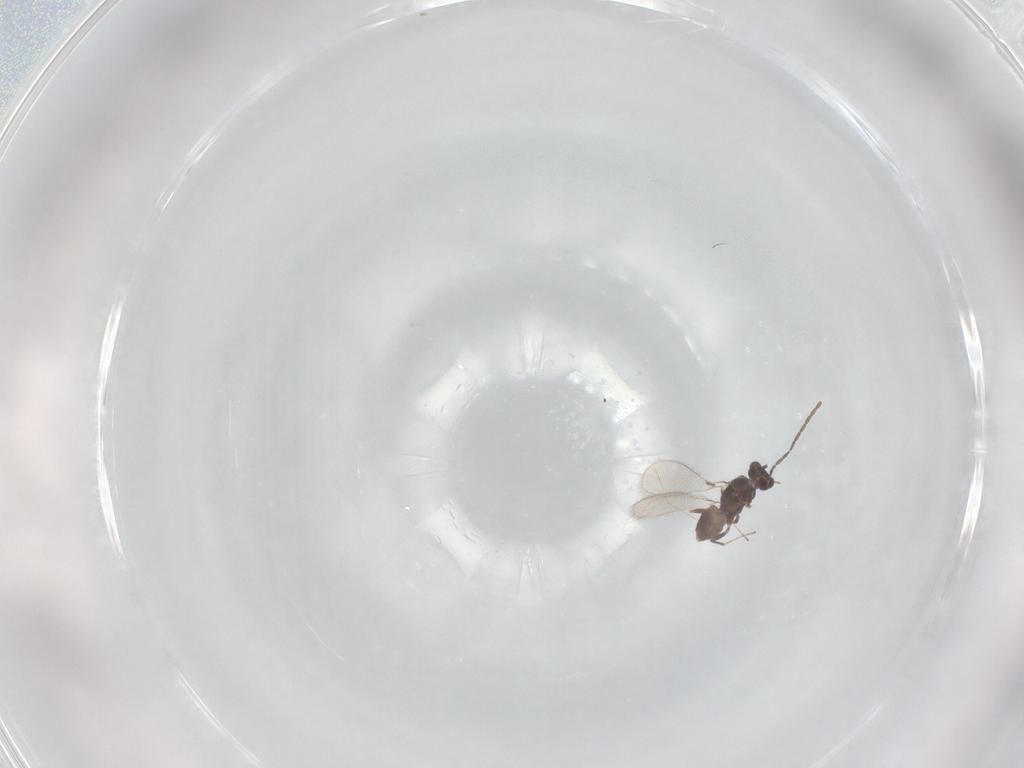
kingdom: Animalia
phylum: Arthropoda
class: Insecta
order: Hymenoptera
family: Mymaridae
